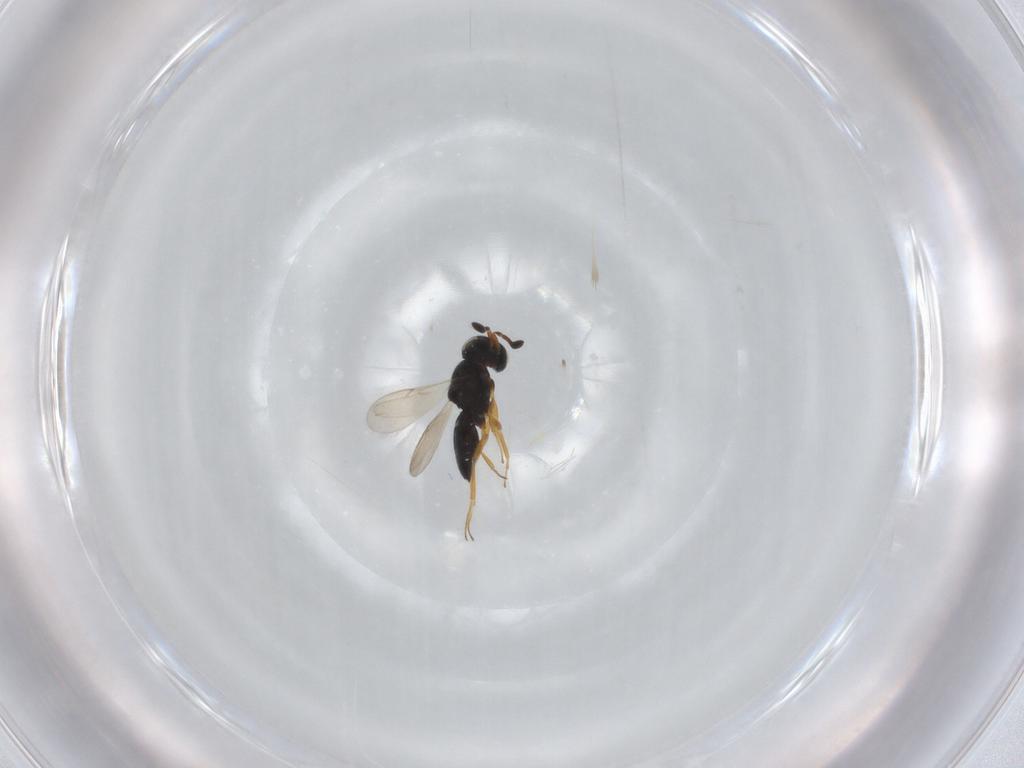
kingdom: Animalia
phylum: Arthropoda
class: Insecta
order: Hymenoptera
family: Scelionidae
